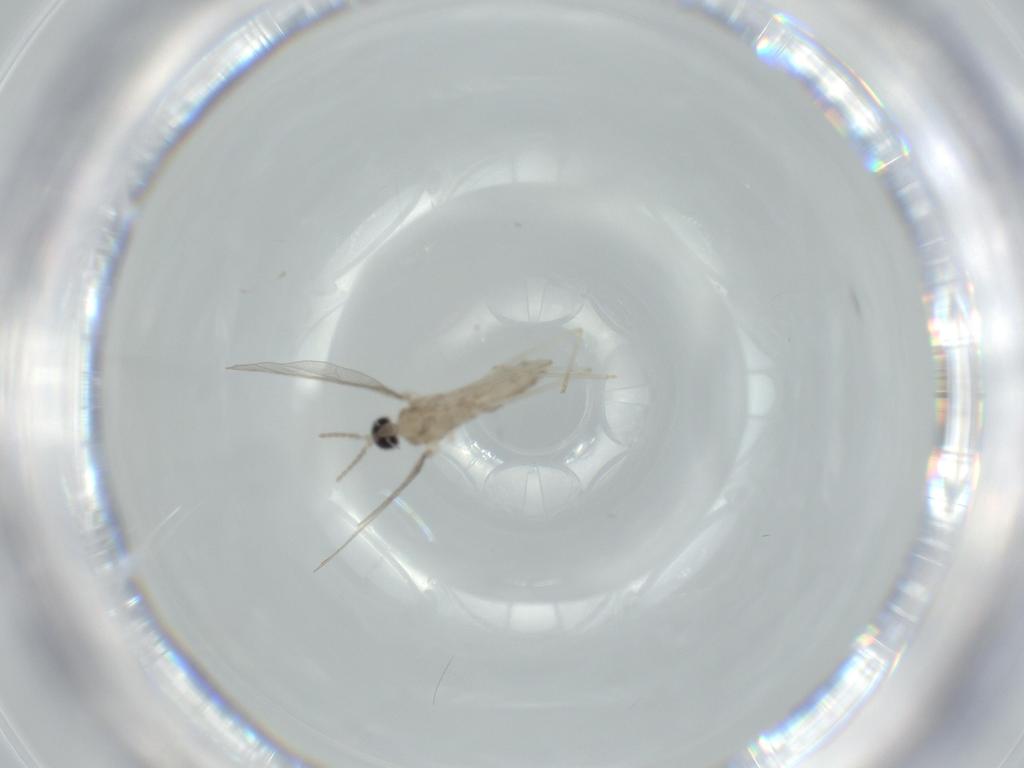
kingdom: Animalia
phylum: Arthropoda
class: Insecta
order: Diptera
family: Cecidomyiidae
